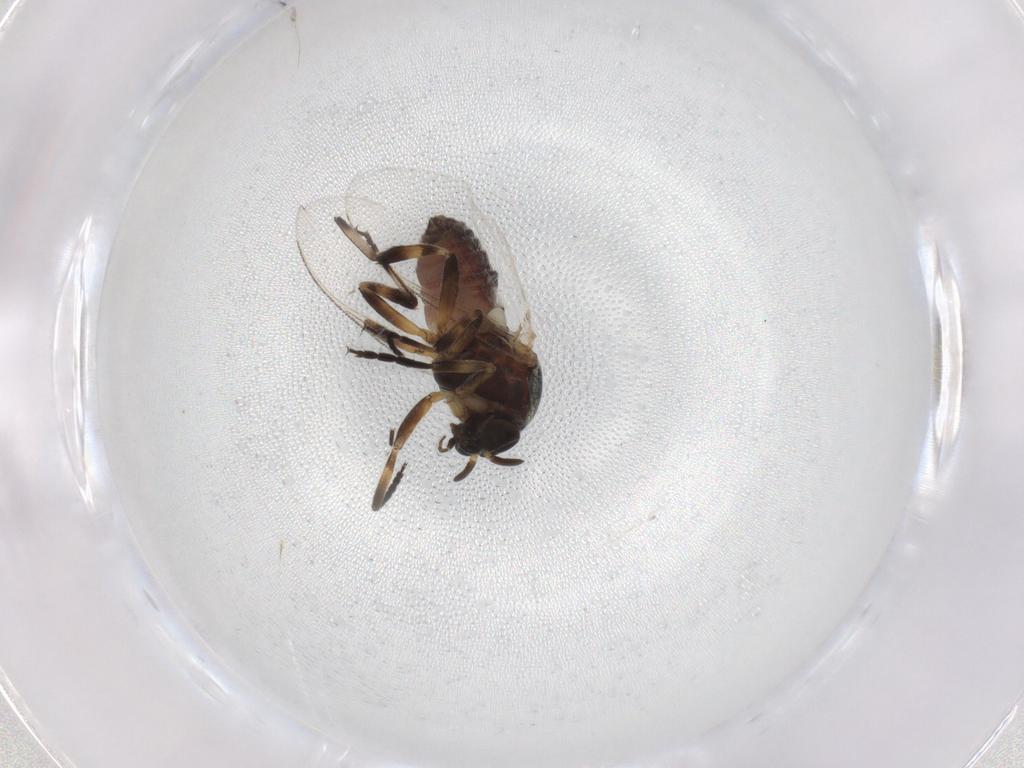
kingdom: Animalia
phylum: Arthropoda
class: Insecta
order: Diptera
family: Simuliidae
